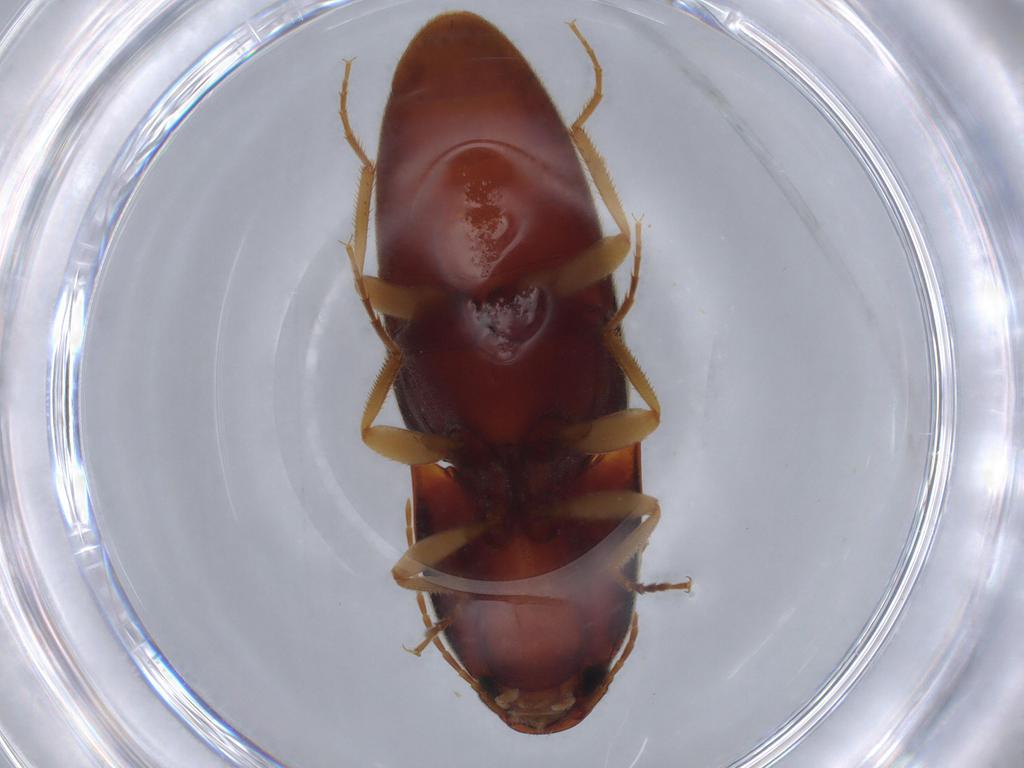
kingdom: Animalia
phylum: Arthropoda
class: Insecta
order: Coleoptera
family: Elateridae
